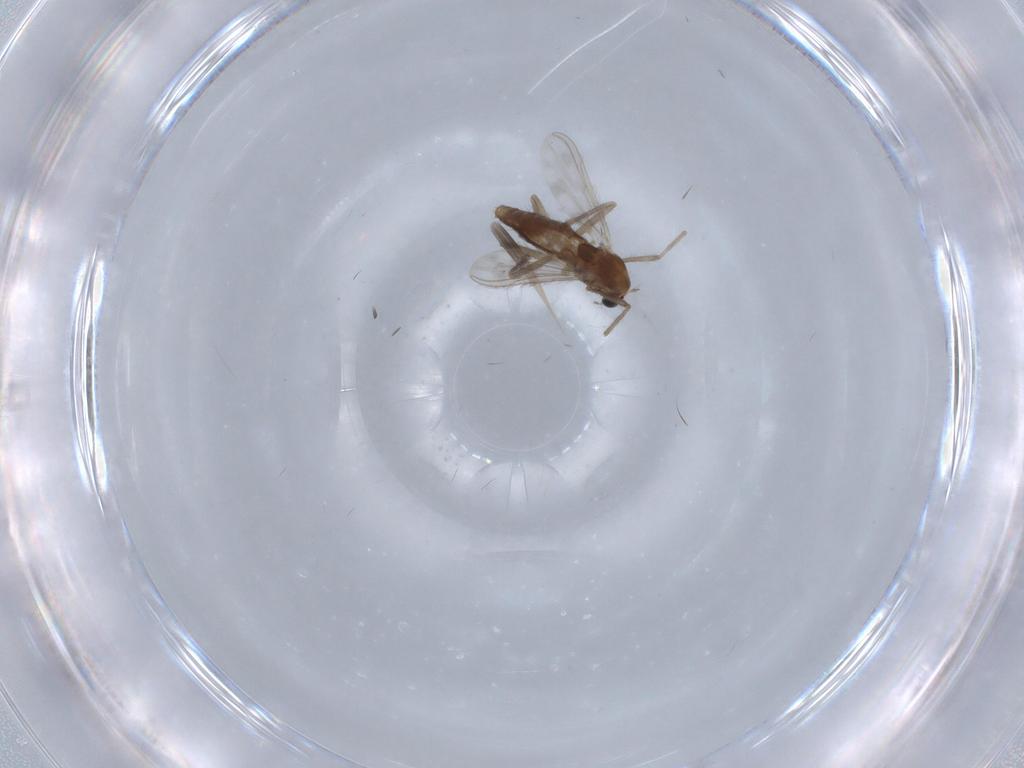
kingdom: Animalia
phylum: Arthropoda
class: Insecta
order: Diptera
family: Chironomidae
